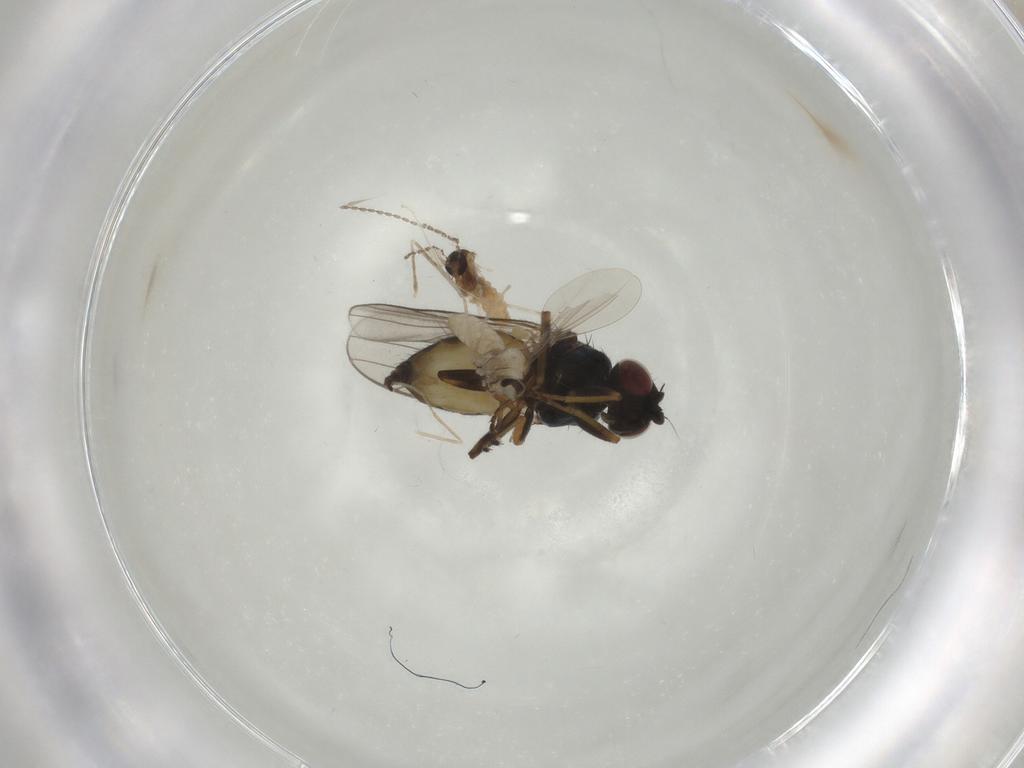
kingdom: Animalia
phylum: Arthropoda
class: Insecta
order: Diptera
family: Chloropidae
